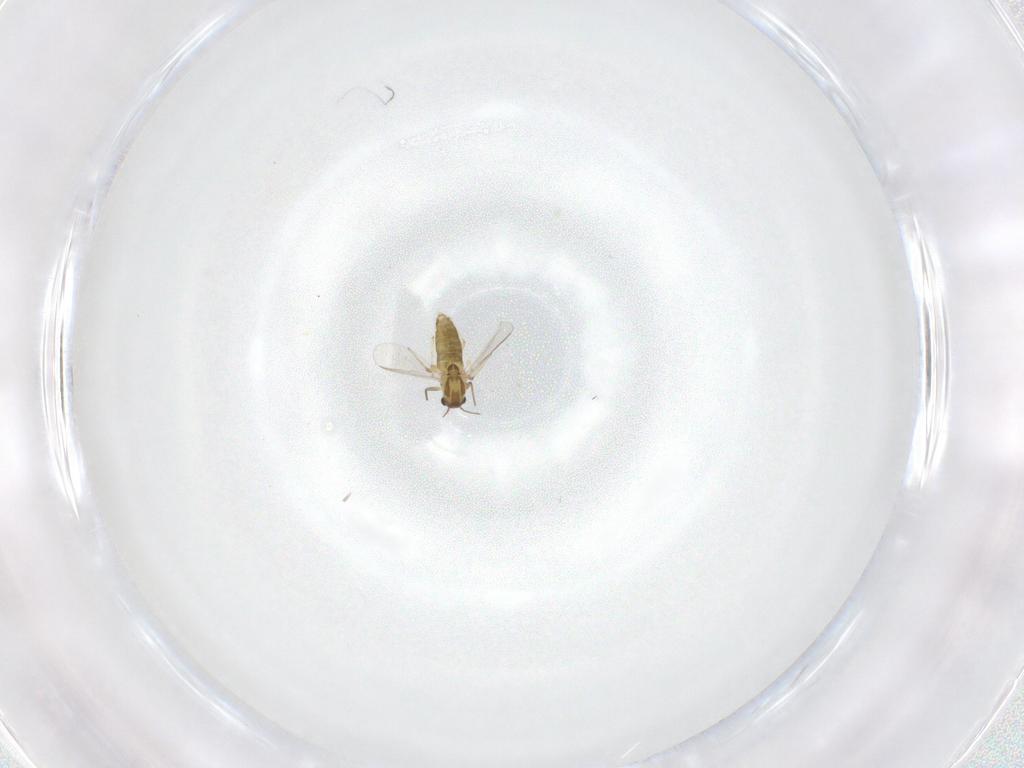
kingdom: Animalia
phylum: Arthropoda
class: Insecta
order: Diptera
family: Chironomidae
